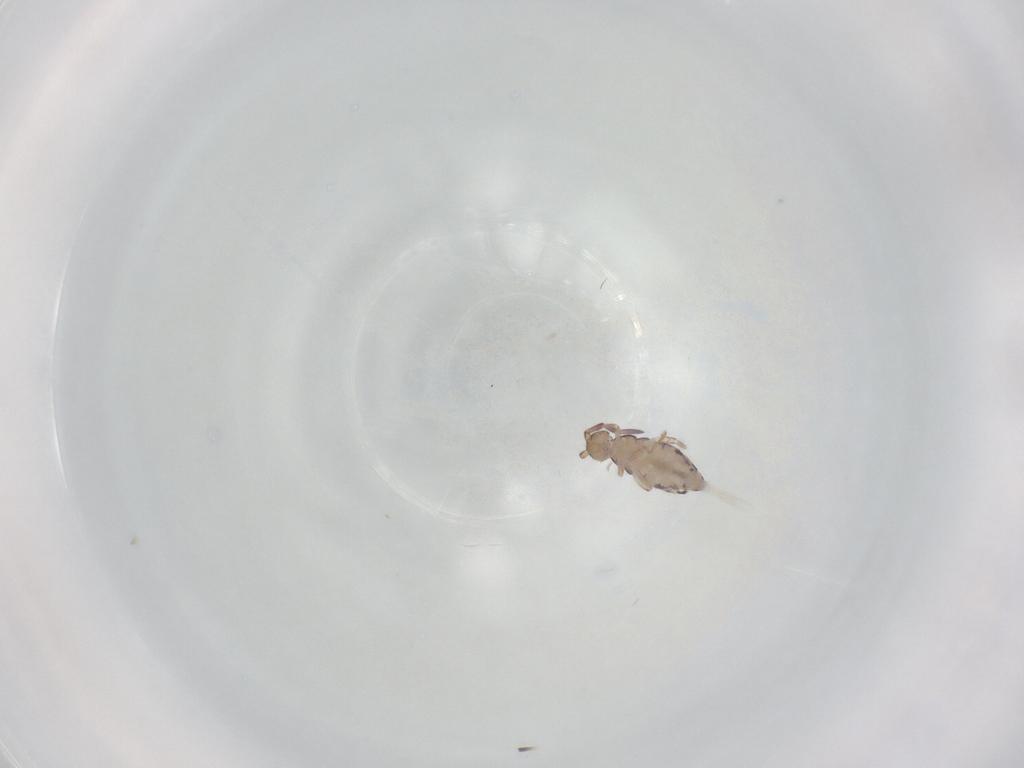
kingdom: Animalia
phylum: Arthropoda
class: Collembola
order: Entomobryomorpha
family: Entomobryidae
